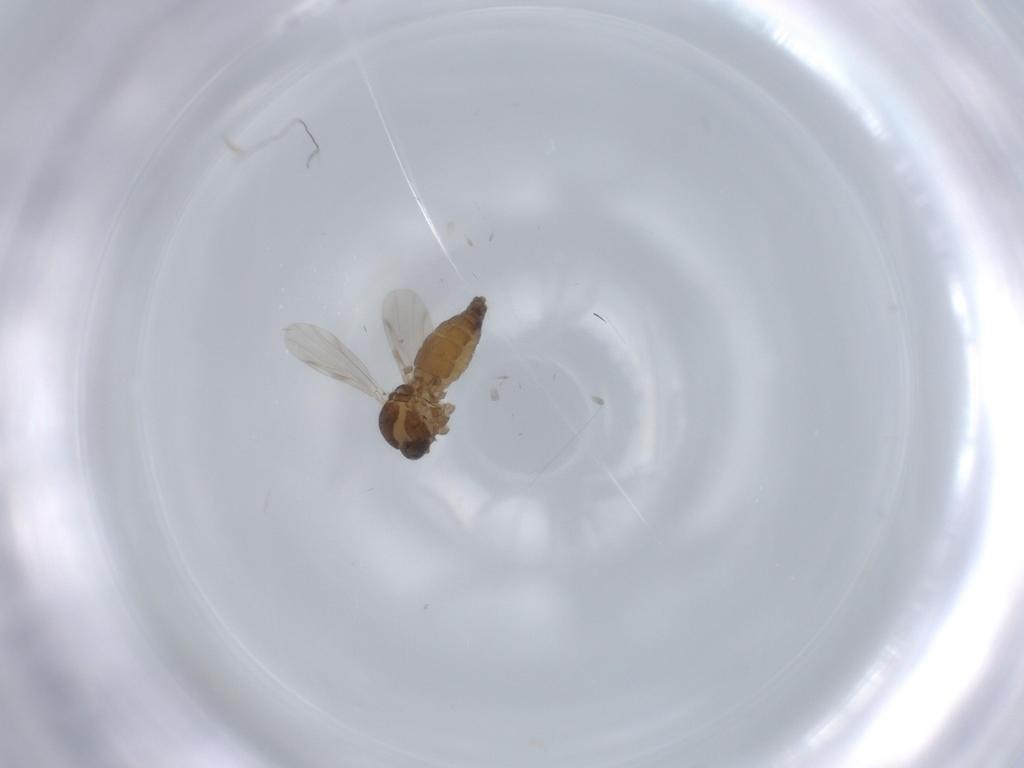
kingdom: Animalia
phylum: Arthropoda
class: Insecta
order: Diptera
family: Ceratopogonidae
